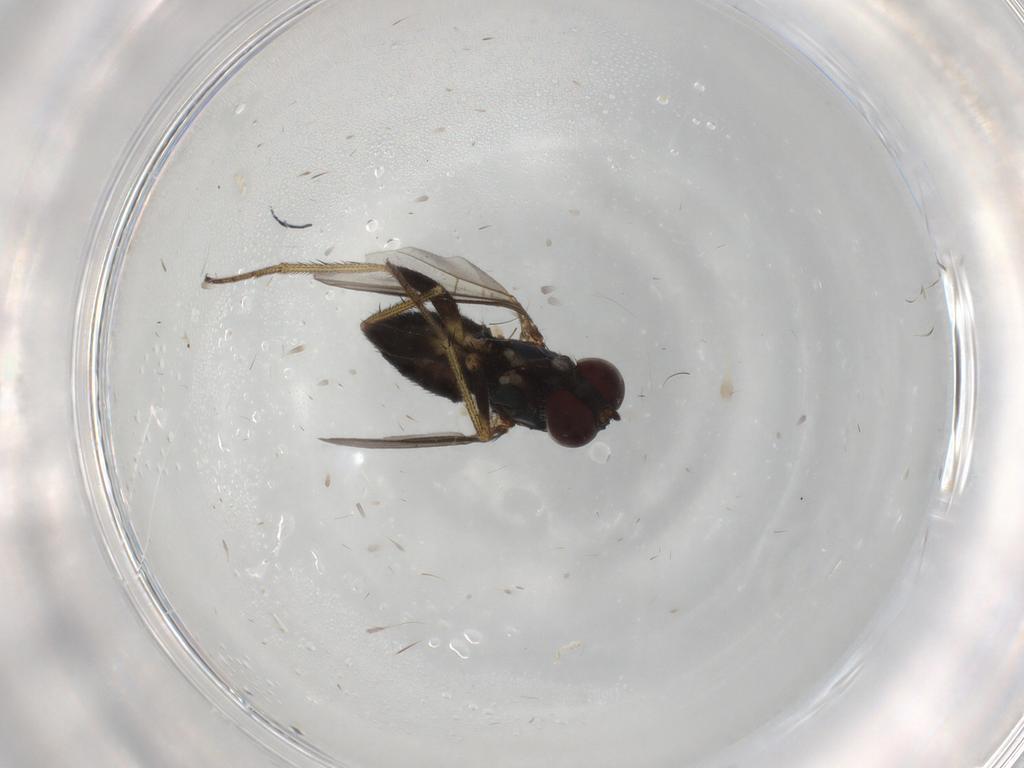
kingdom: Animalia
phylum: Arthropoda
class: Insecta
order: Diptera
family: Dolichopodidae
